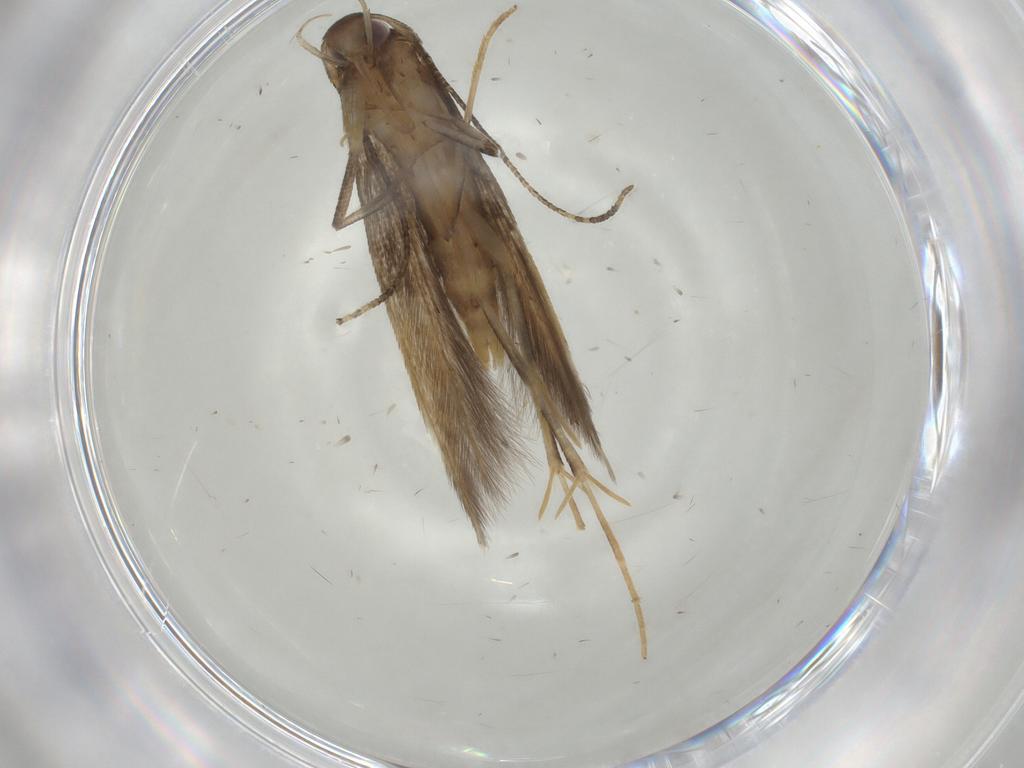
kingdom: Animalia
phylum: Arthropoda
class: Insecta
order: Lepidoptera
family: Cosmopterigidae
